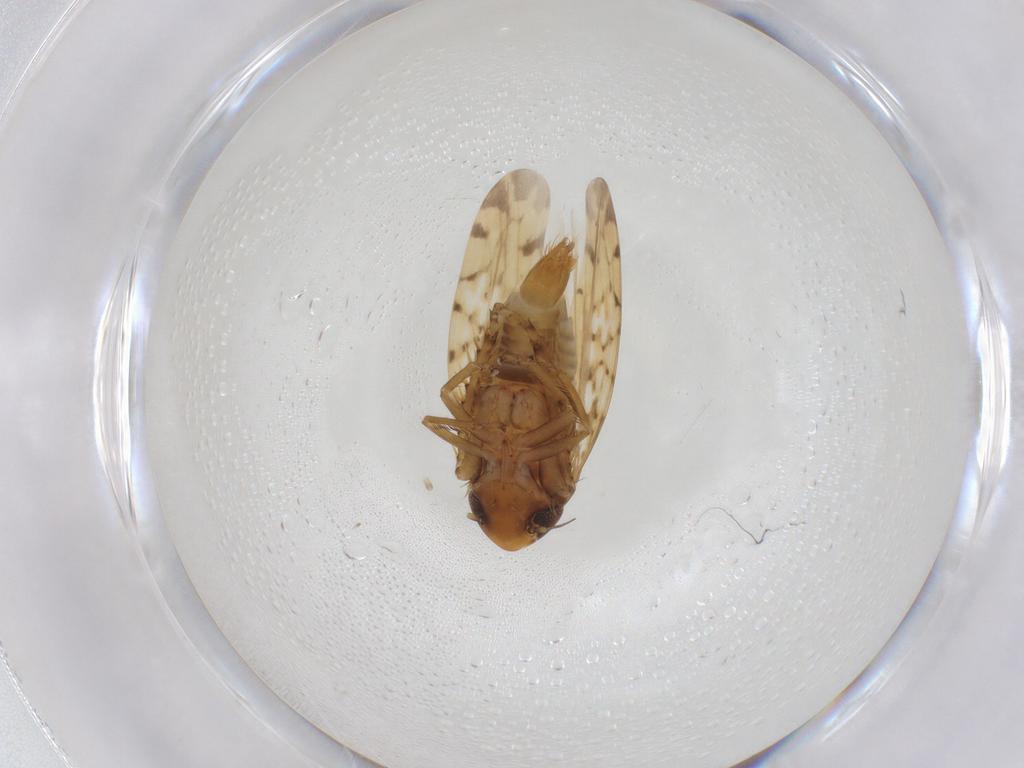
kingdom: Animalia
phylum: Arthropoda
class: Insecta
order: Hemiptera
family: Cicadellidae
